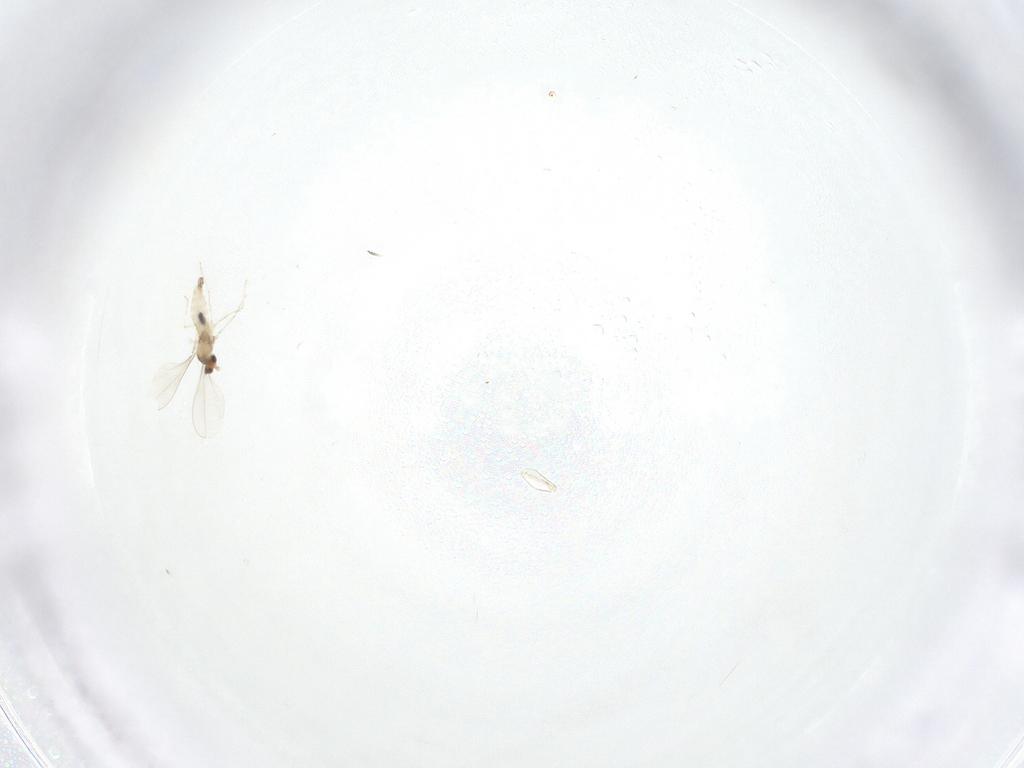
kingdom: Animalia
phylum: Arthropoda
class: Insecta
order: Diptera
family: Cecidomyiidae
